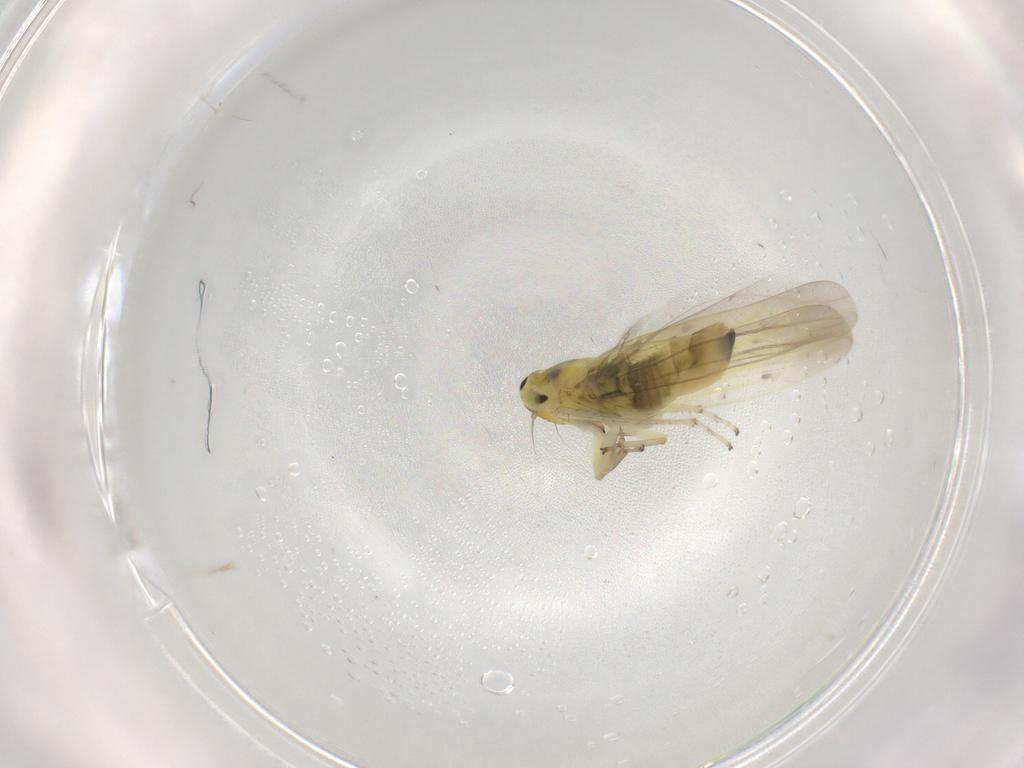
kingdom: Animalia
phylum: Arthropoda
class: Insecta
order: Hemiptera
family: Cicadellidae
